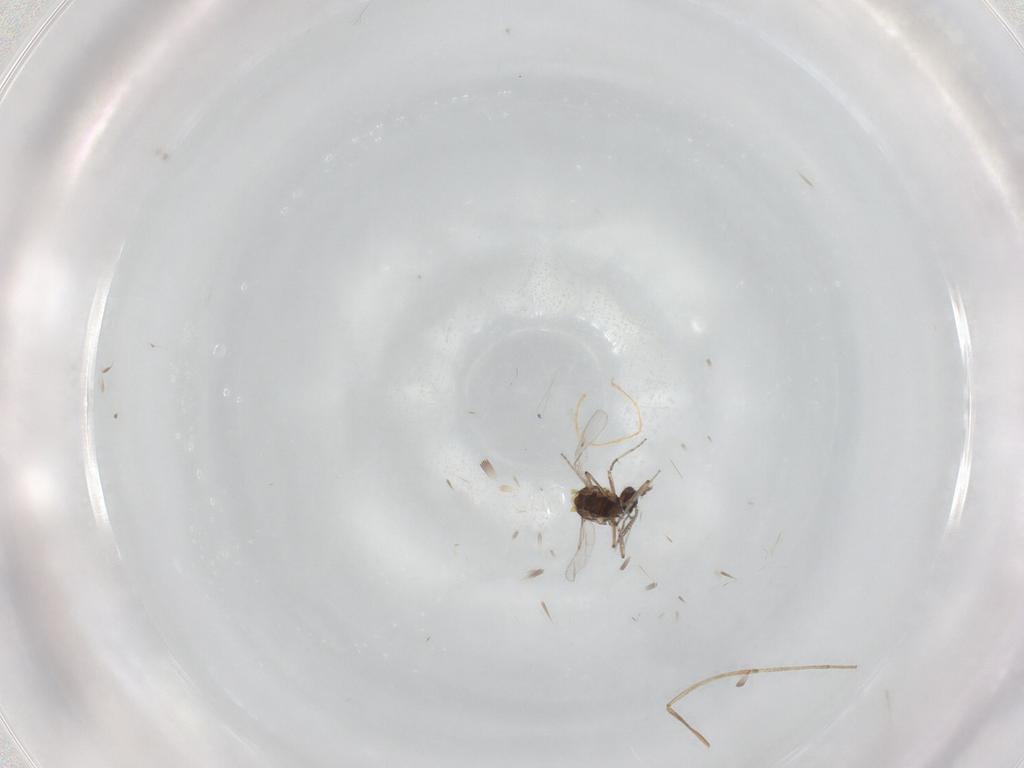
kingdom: Animalia
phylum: Arthropoda
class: Insecta
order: Diptera
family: Ceratopogonidae
